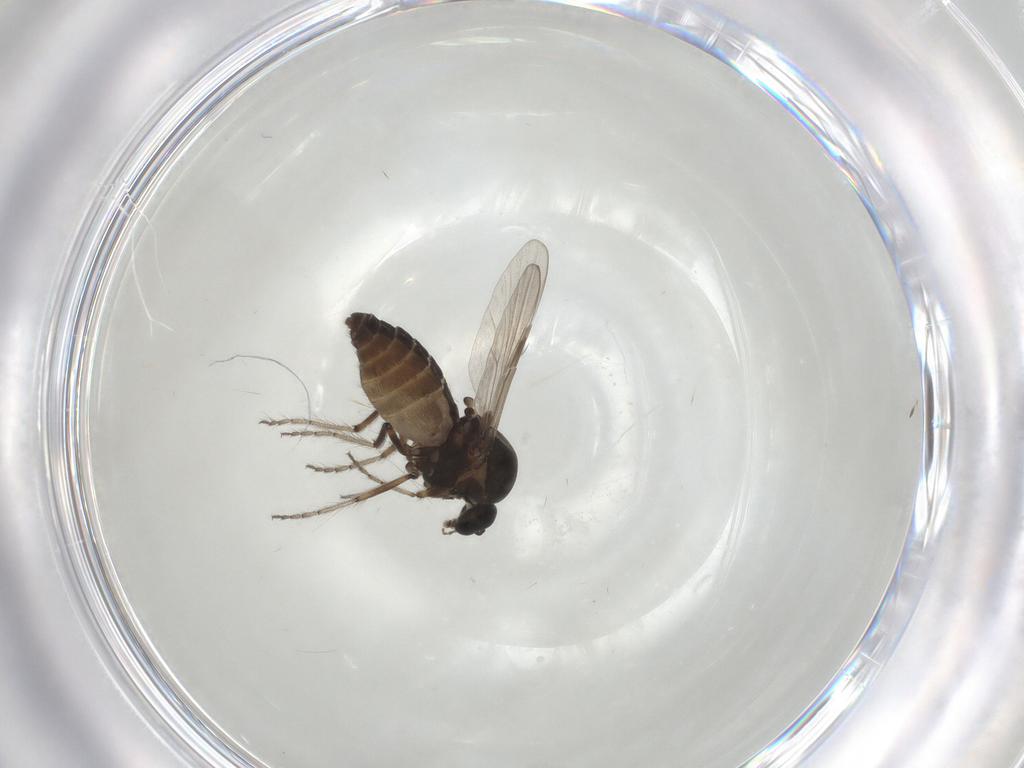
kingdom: Animalia
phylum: Arthropoda
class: Insecta
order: Diptera
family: Ceratopogonidae
